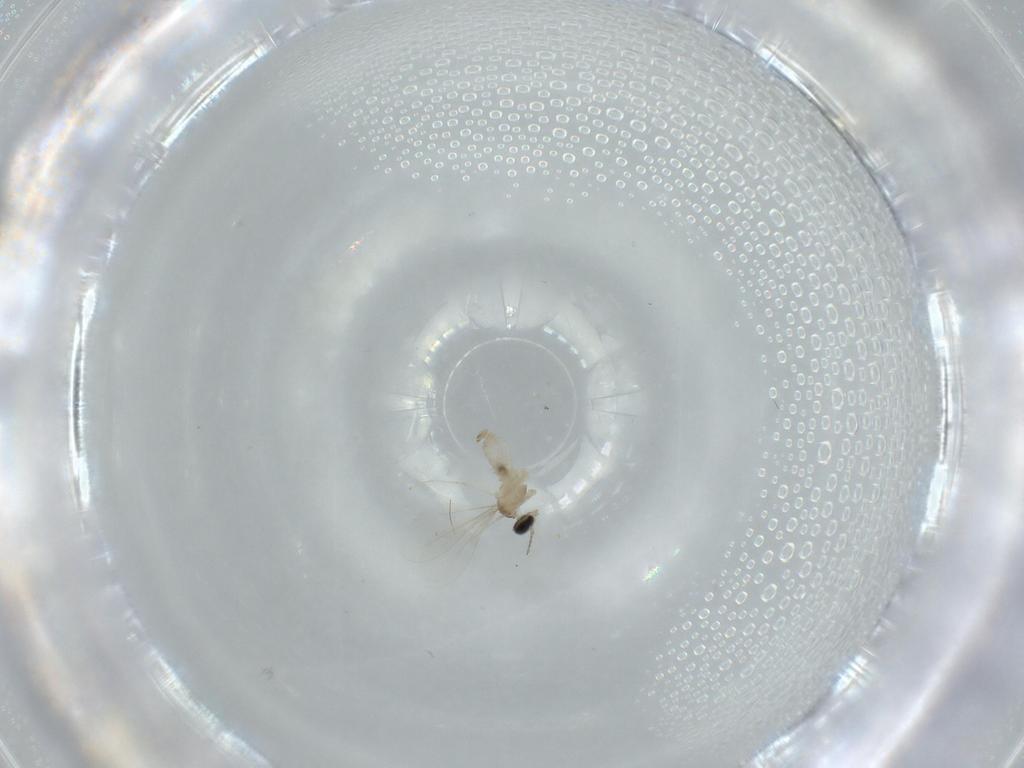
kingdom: Animalia
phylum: Arthropoda
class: Insecta
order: Diptera
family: Cecidomyiidae
